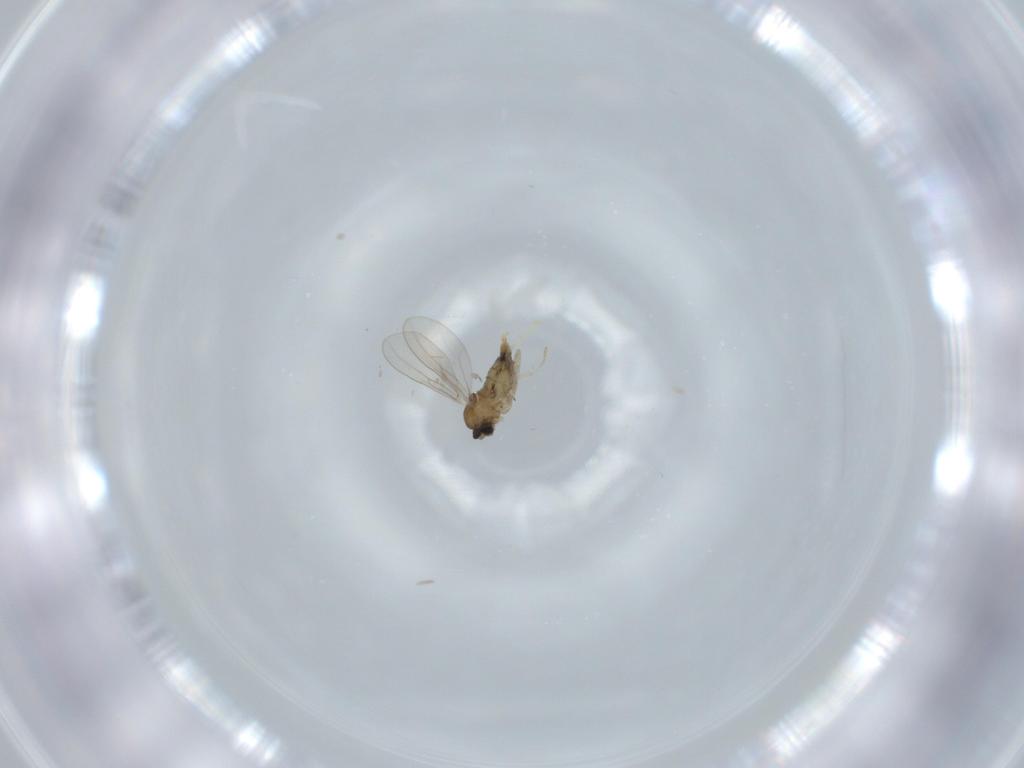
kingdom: Animalia
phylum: Arthropoda
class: Insecta
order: Diptera
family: Cecidomyiidae
